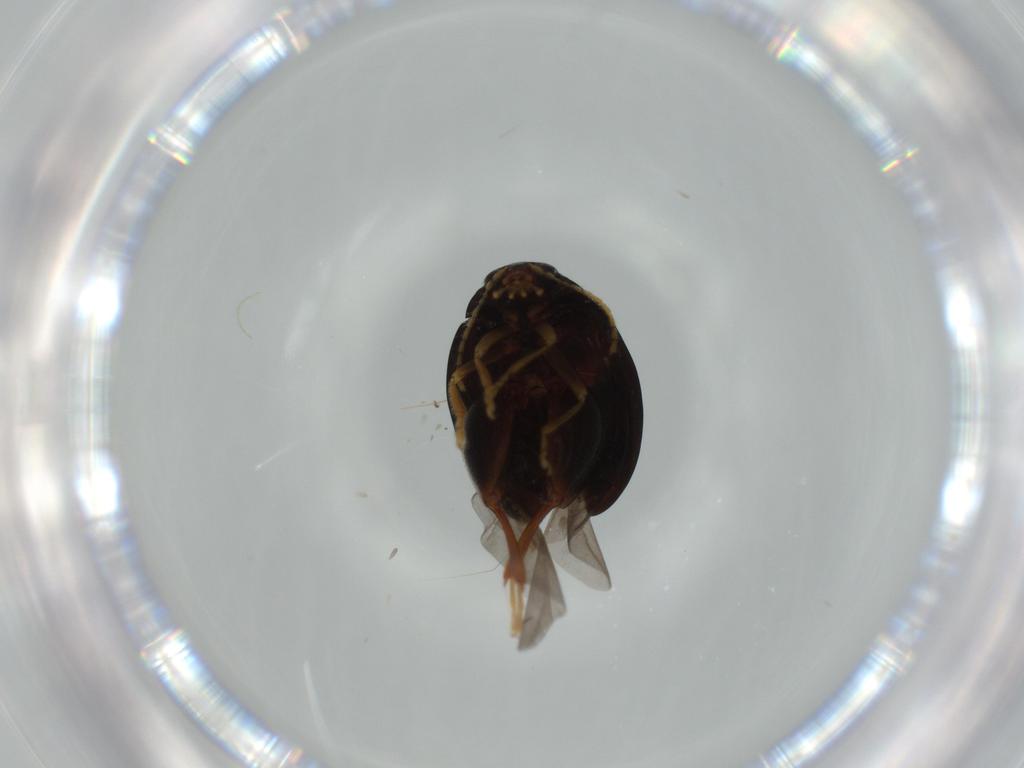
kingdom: Animalia
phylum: Arthropoda
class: Insecta
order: Coleoptera
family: Chrysomelidae
